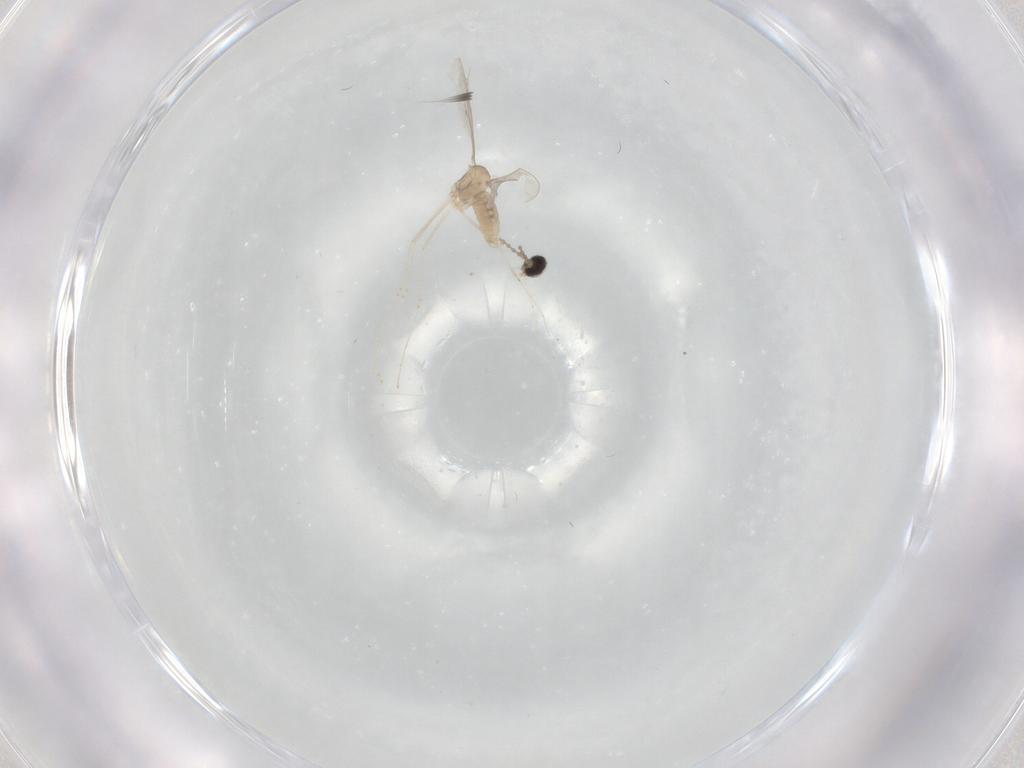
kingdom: Animalia
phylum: Arthropoda
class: Insecta
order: Diptera
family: Cecidomyiidae
